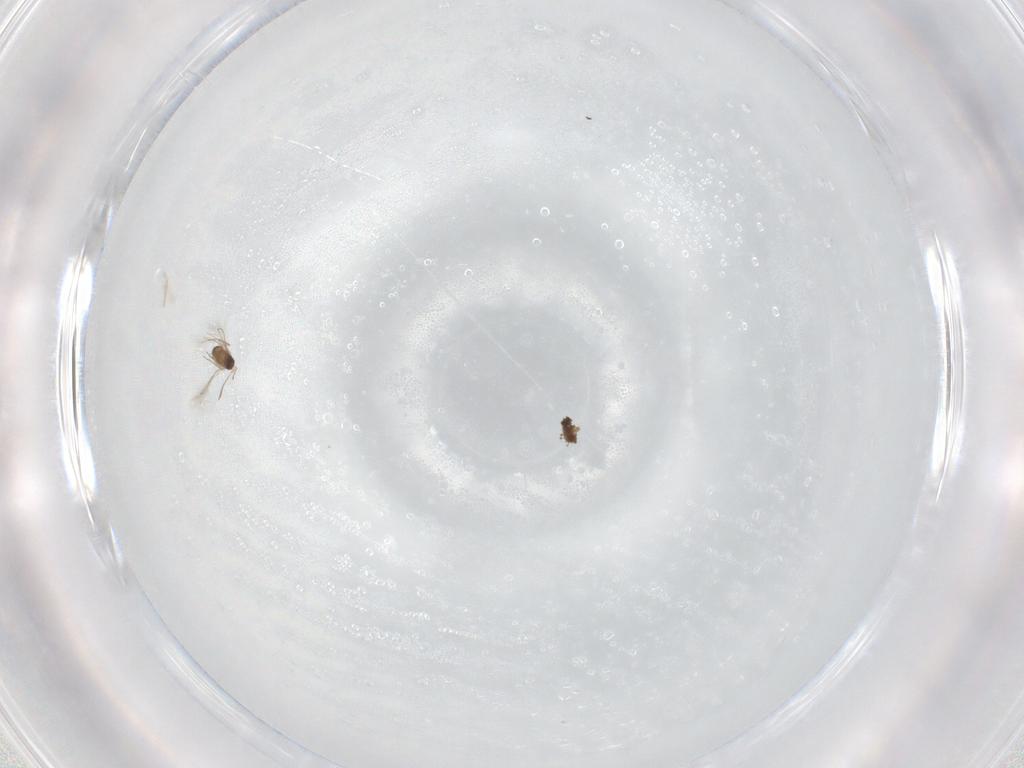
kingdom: Animalia
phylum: Arthropoda
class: Insecta
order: Hymenoptera
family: Mymaridae
